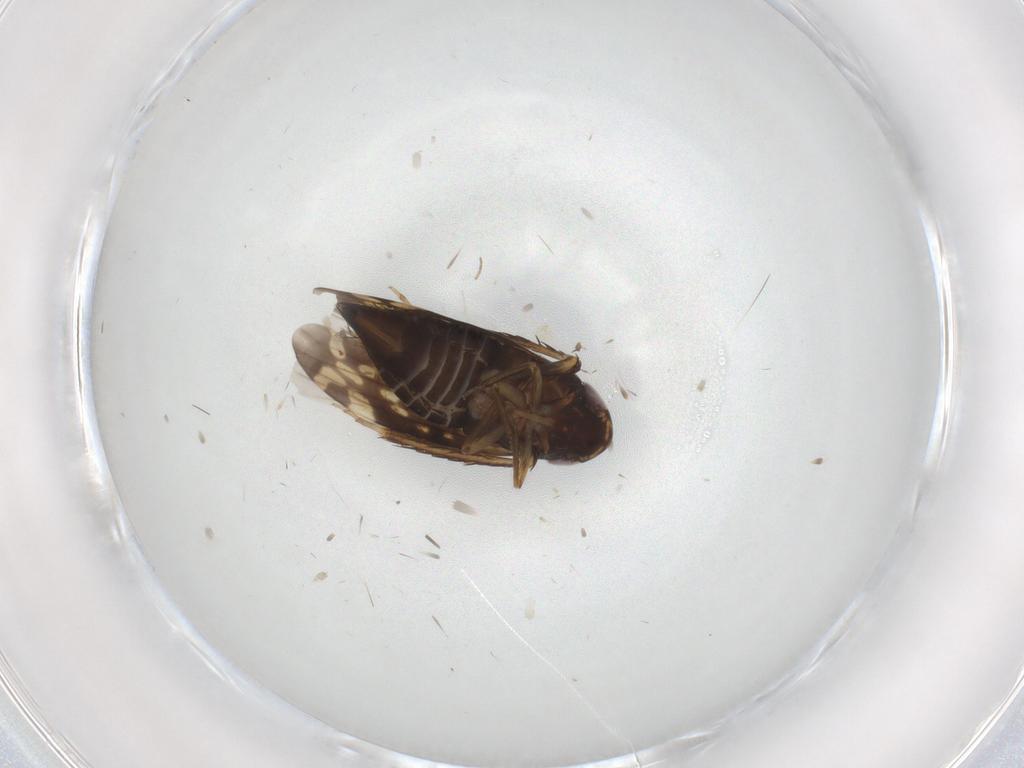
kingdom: Animalia
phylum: Arthropoda
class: Insecta
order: Hemiptera
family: Cicadellidae
